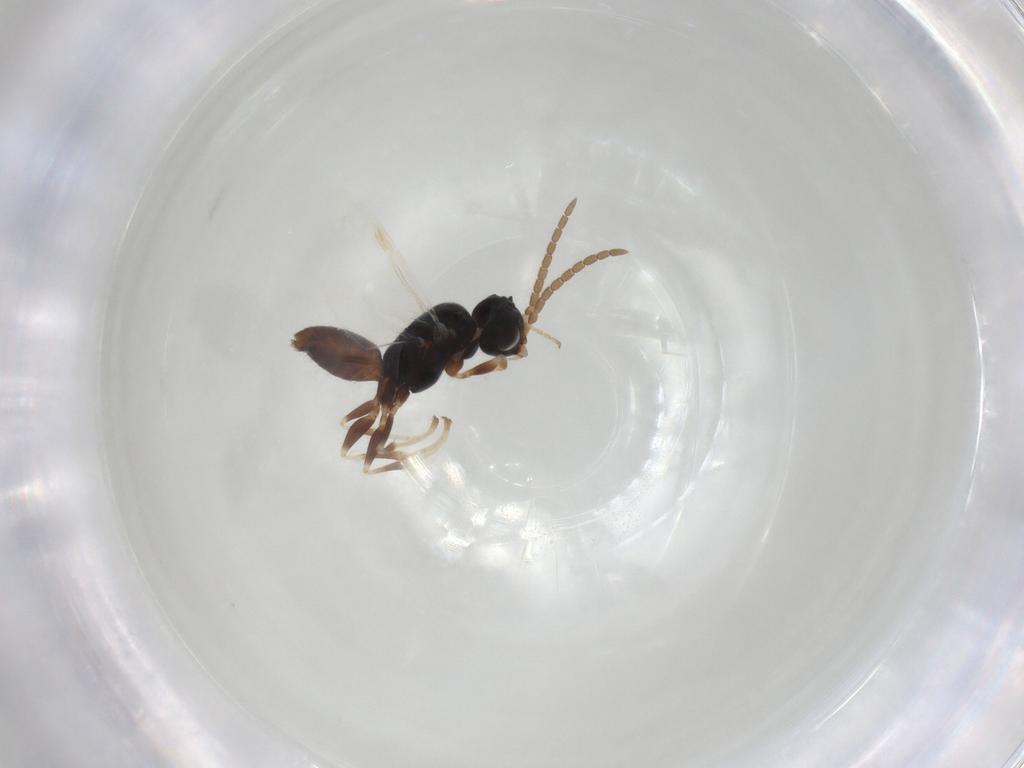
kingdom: Animalia
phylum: Arthropoda
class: Insecta
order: Hymenoptera
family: Dryinidae
